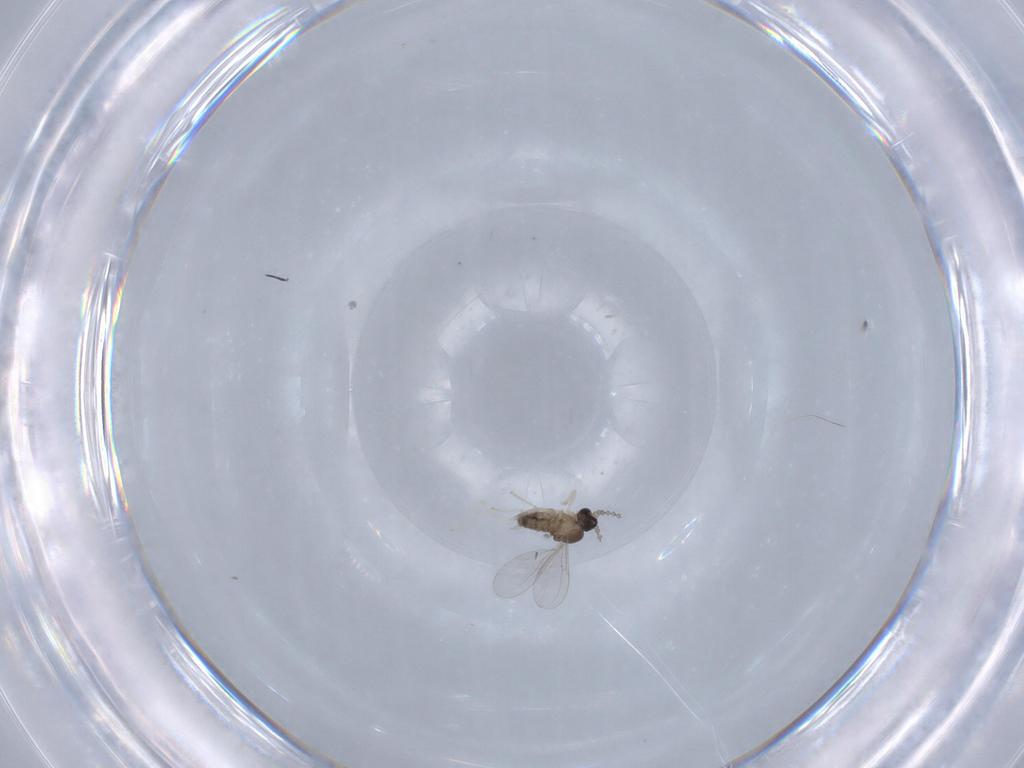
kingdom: Animalia
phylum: Arthropoda
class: Insecta
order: Diptera
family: Cecidomyiidae
